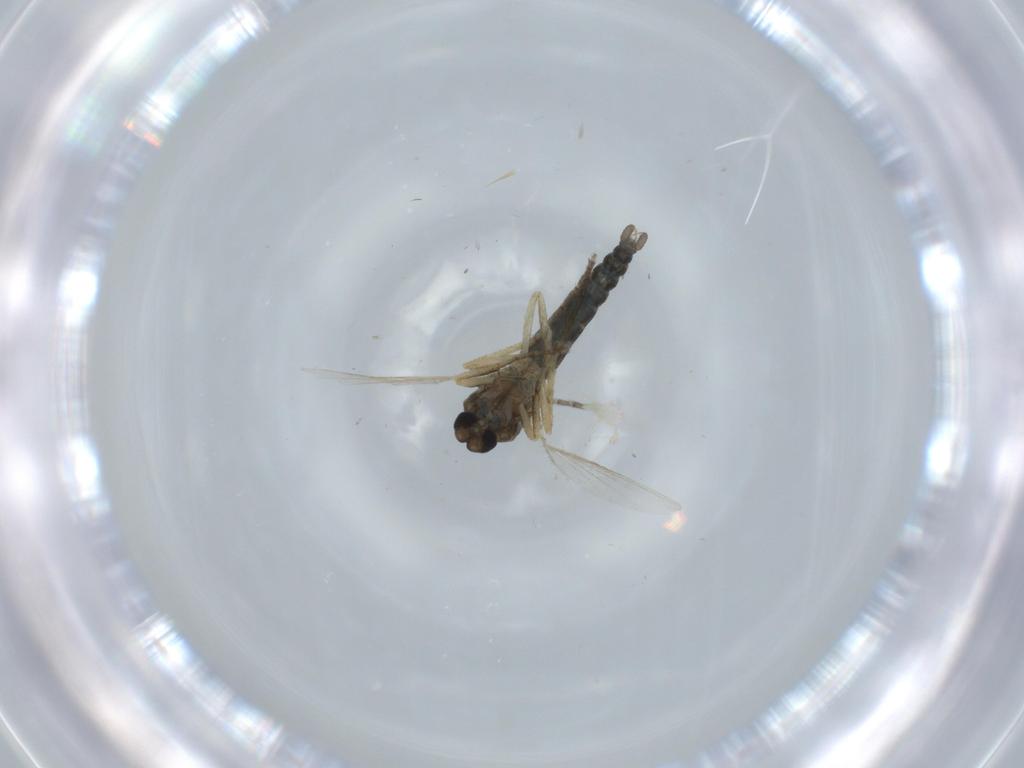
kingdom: Animalia
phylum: Arthropoda
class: Insecta
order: Diptera
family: Ceratopogonidae
